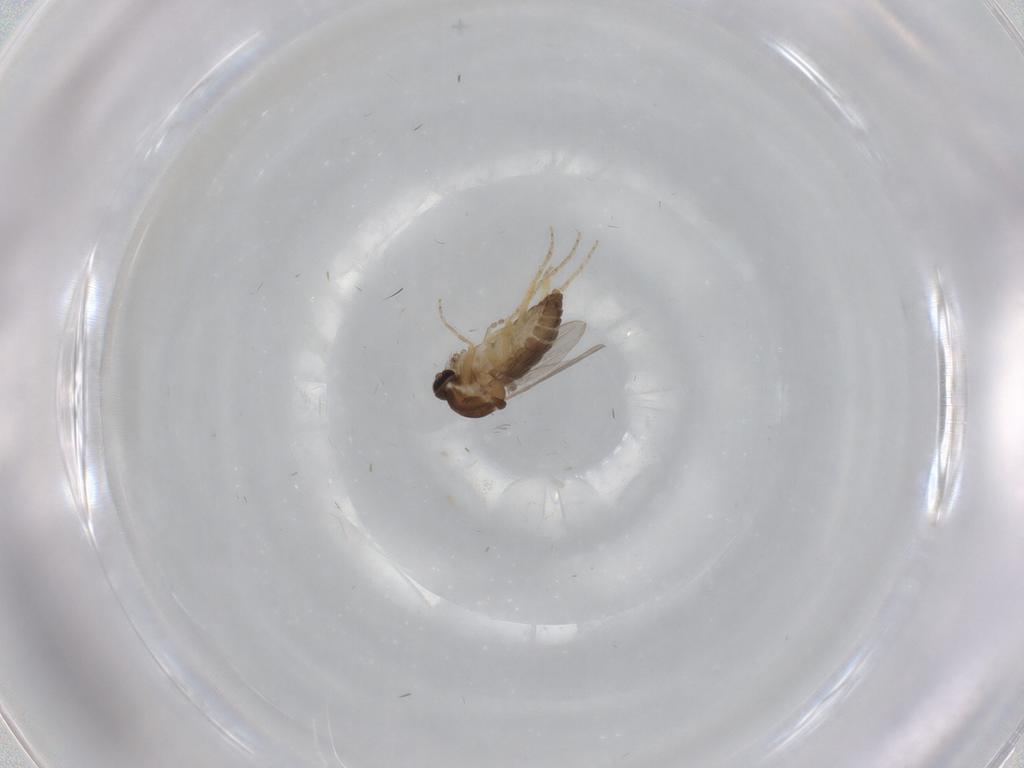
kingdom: Animalia
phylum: Arthropoda
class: Insecta
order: Diptera
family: Ceratopogonidae
